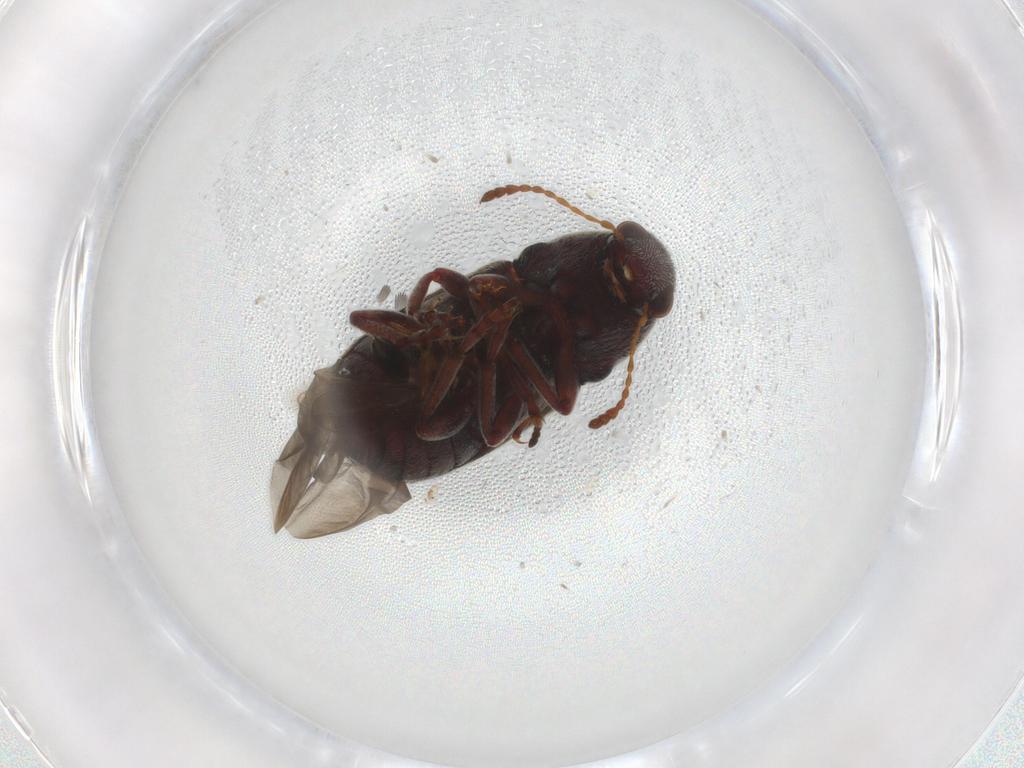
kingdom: Animalia
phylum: Arthropoda
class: Insecta
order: Coleoptera
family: Anthribidae
